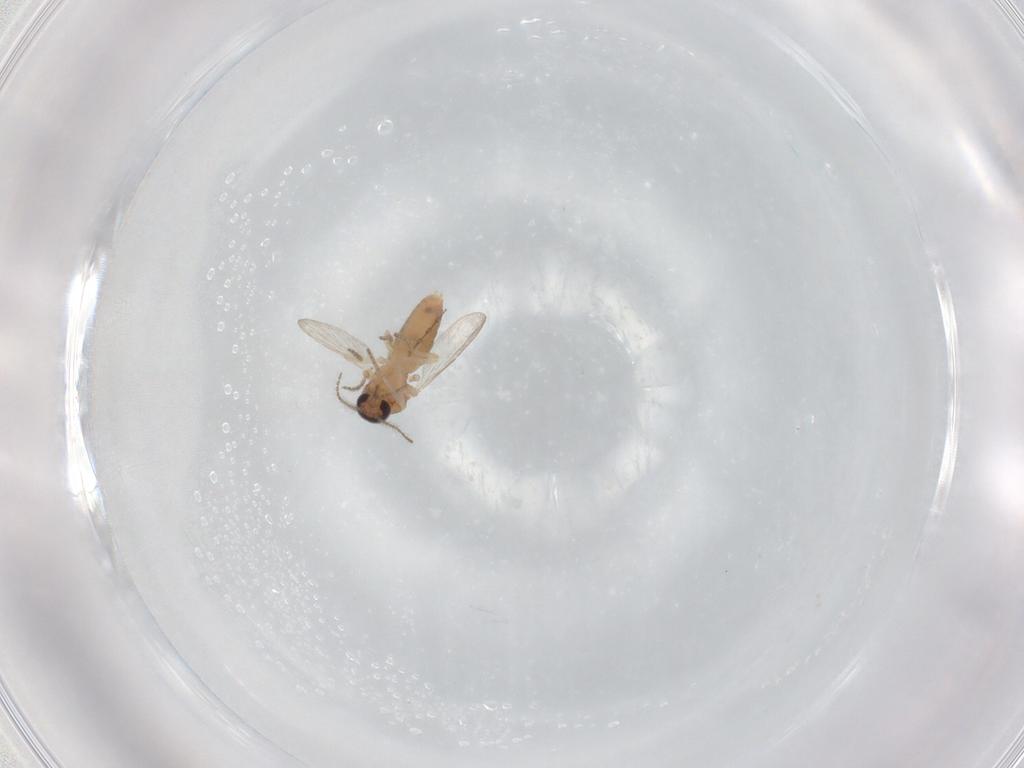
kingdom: Animalia
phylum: Arthropoda
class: Insecta
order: Diptera
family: Ceratopogonidae
